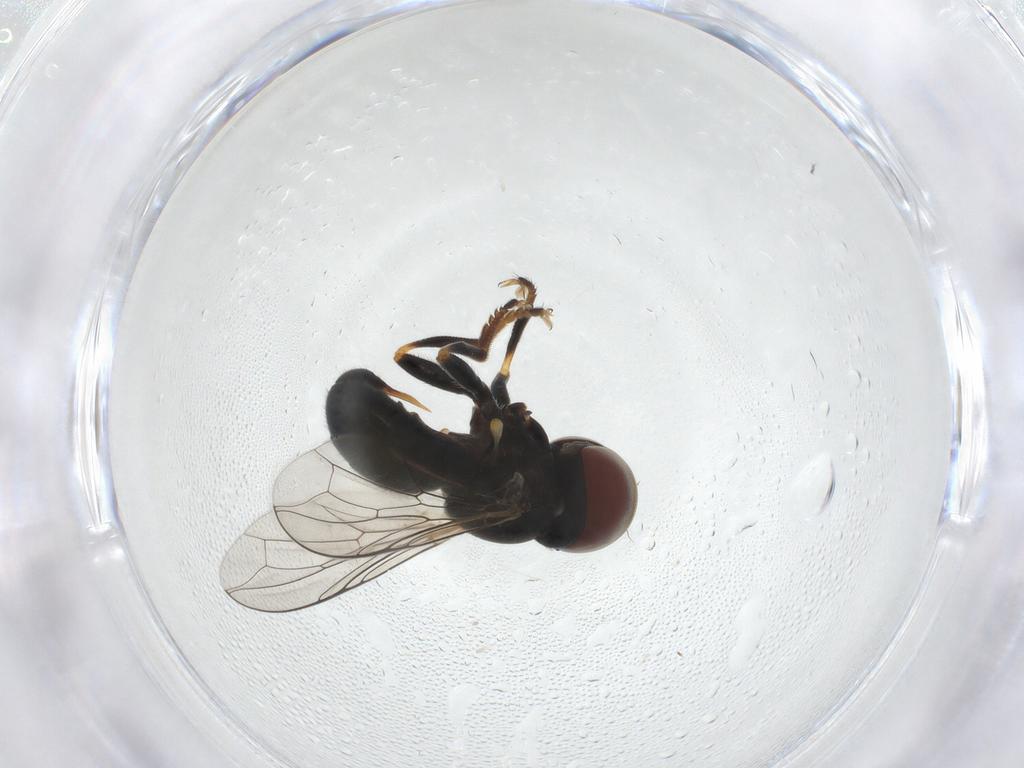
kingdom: Animalia
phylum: Arthropoda
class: Insecta
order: Diptera
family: Pipunculidae
